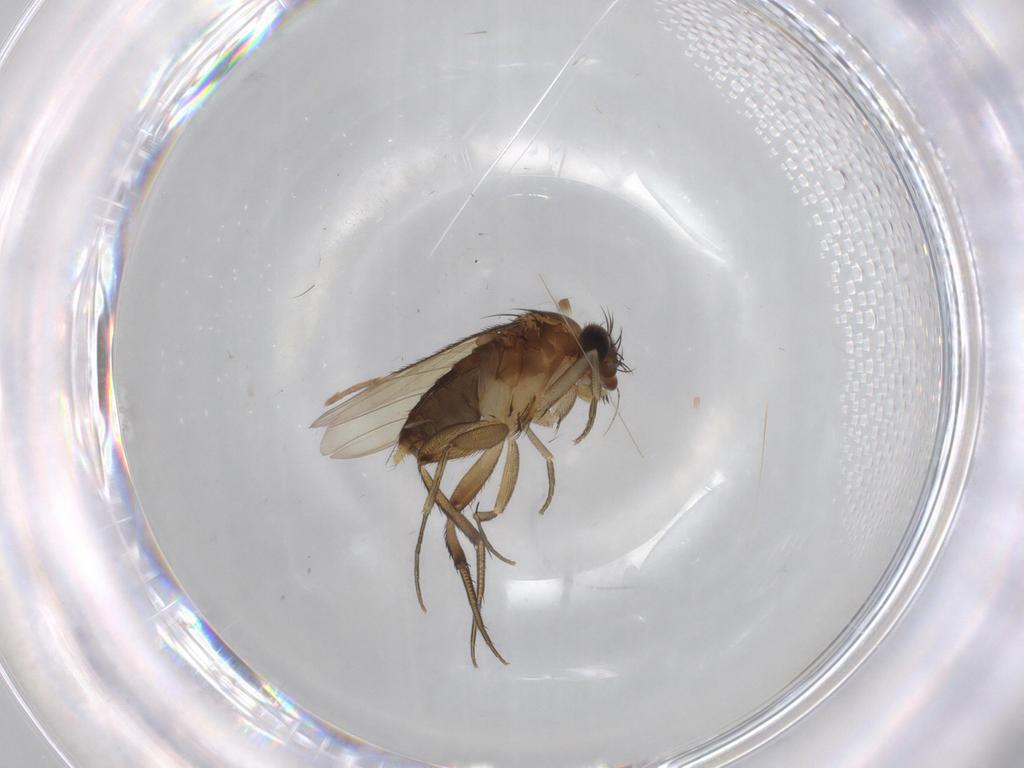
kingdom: Animalia
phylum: Arthropoda
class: Insecta
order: Diptera
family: Phoridae
